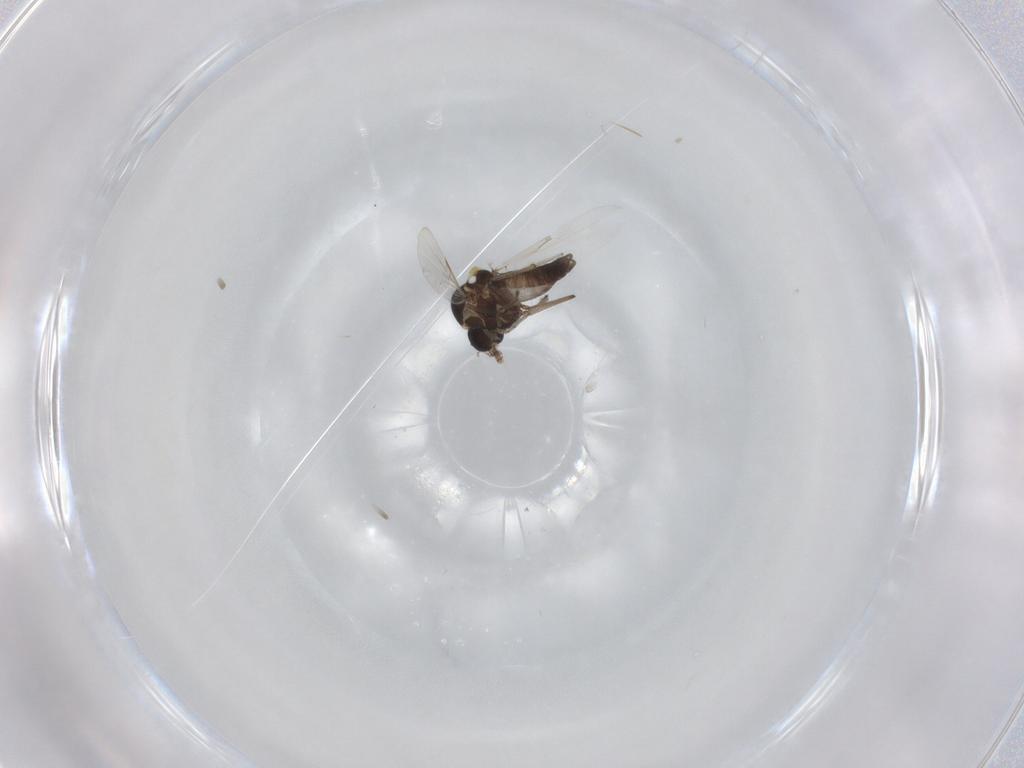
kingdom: Animalia
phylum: Arthropoda
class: Insecta
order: Diptera
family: Ceratopogonidae
